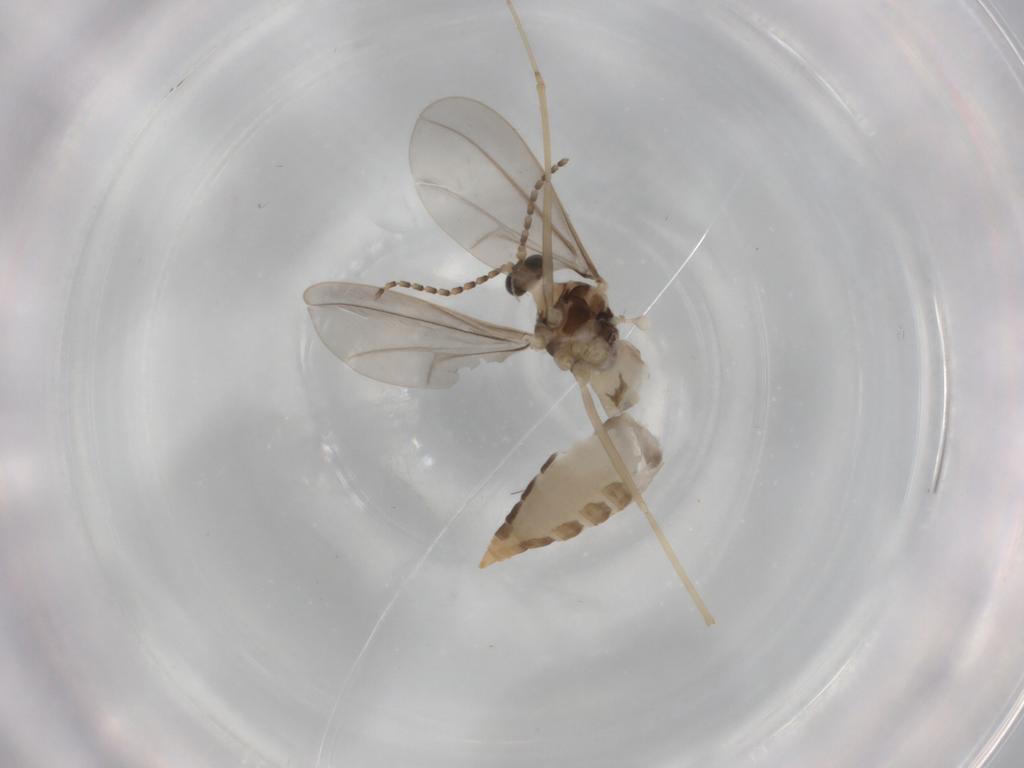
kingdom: Animalia
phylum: Arthropoda
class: Insecta
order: Diptera
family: Cecidomyiidae
